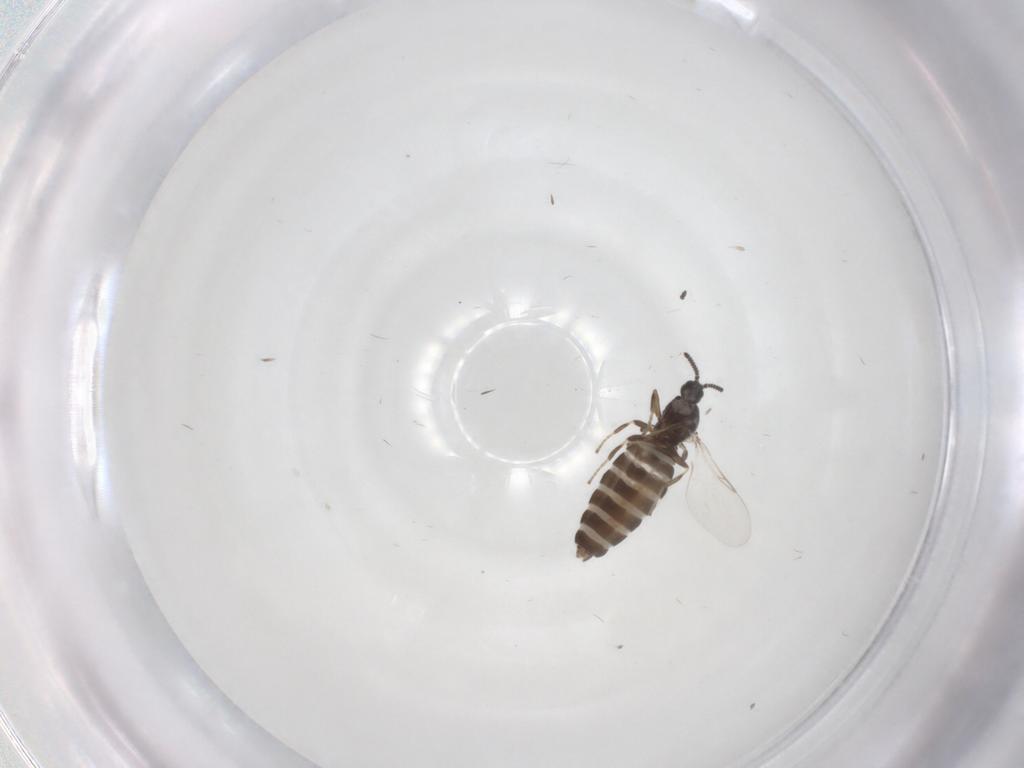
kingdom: Animalia
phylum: Arthropoda
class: Insecta
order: Diptera
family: Scatopsidae
